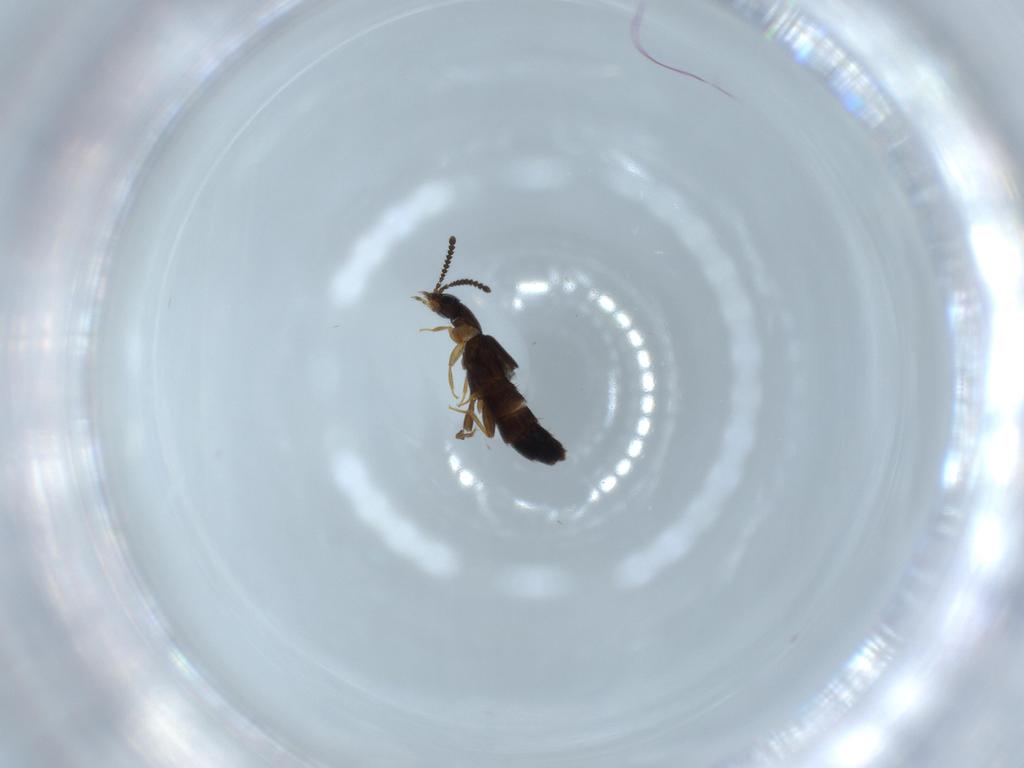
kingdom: Animalia
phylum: Arthropoda
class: Insecta
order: Coleoptera
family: Staphylinidae
